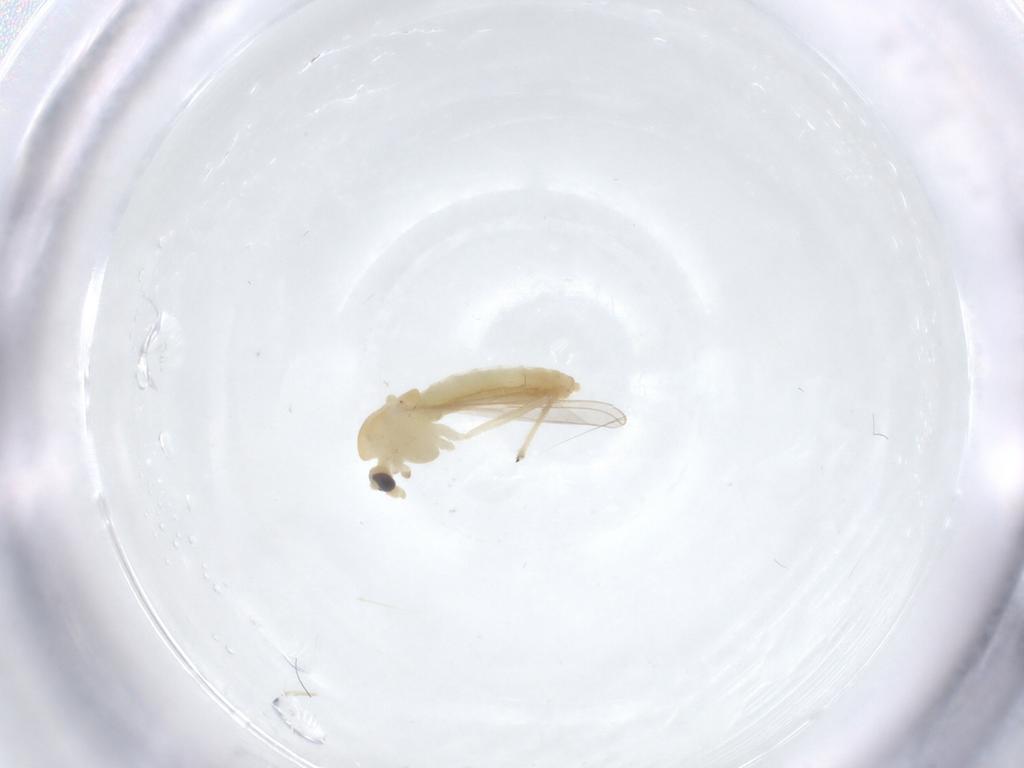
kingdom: Animalia
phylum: Arthropoda
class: Insecta
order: Diptera
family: Chironomidae
